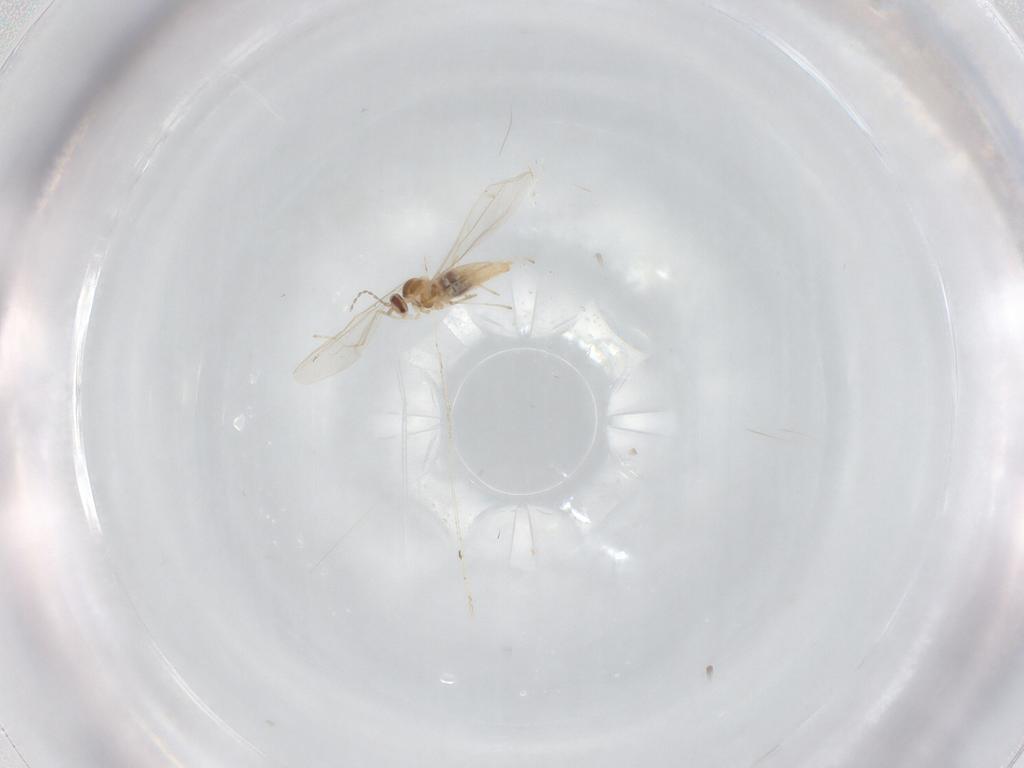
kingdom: Animalia
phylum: Arthropoda
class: Insecta
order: Diptera
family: Cecidomyiidae
